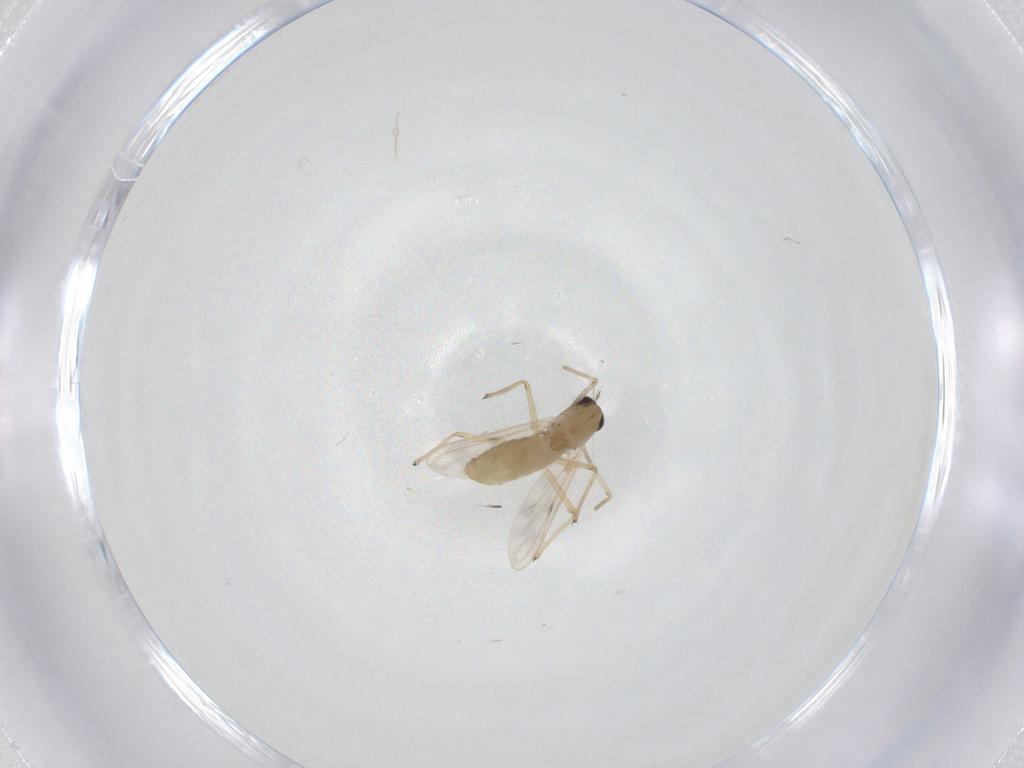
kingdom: Animalia
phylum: Arthropoda
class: Insecta
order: Diptera
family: Chironomidae
